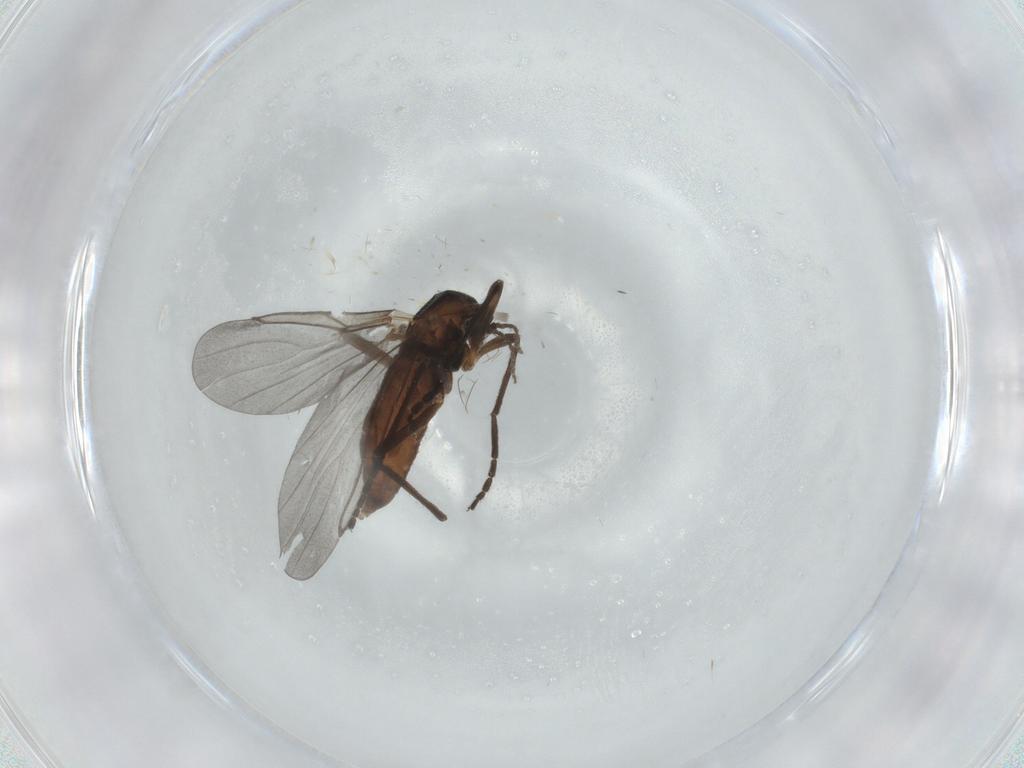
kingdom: Animalia
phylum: Arthropoda
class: Insecta
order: Diptera
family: Cecidomyiidae
